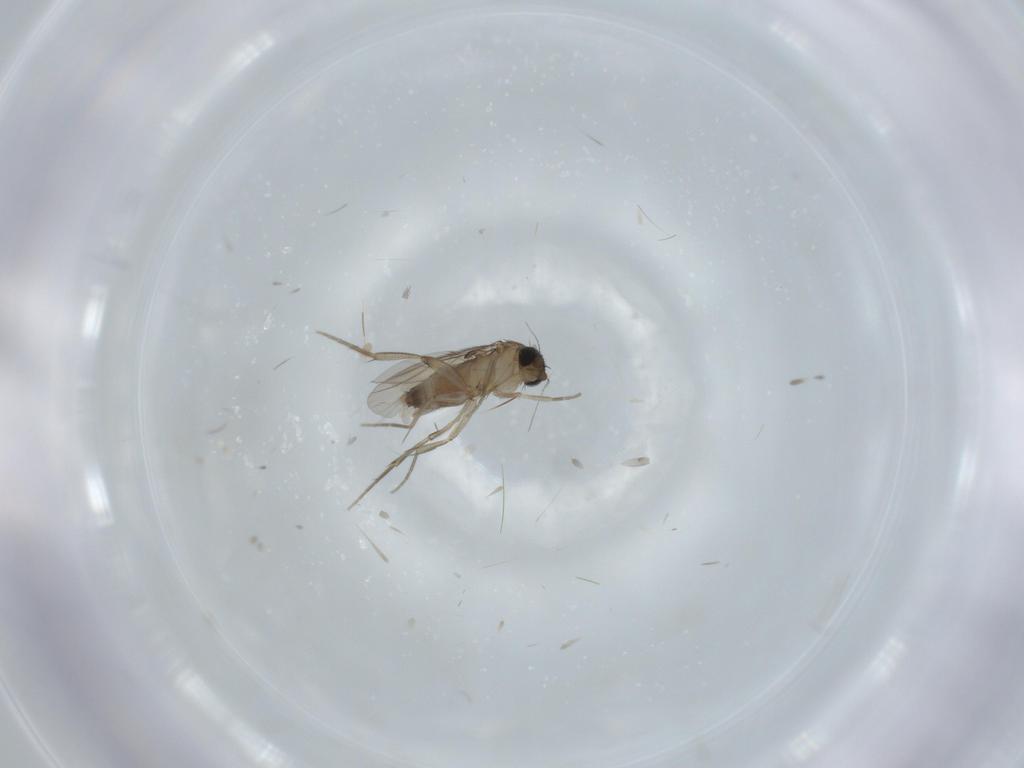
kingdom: Animalia
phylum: Arthropoda
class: Insecta
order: Diptera
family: Phoridae
